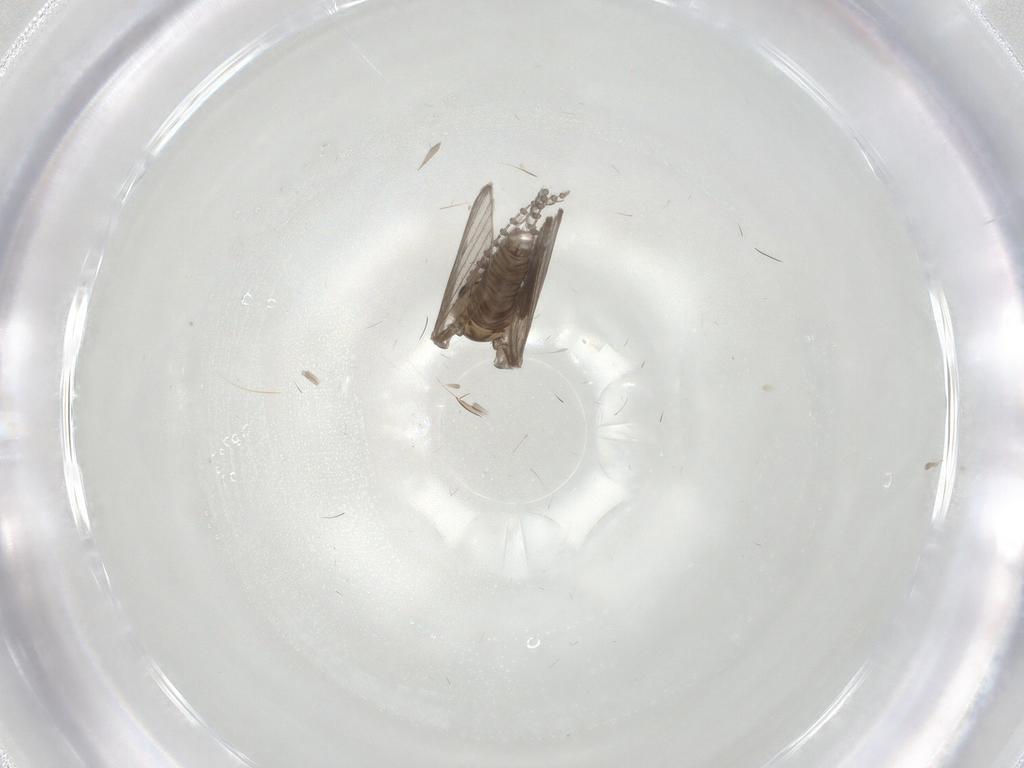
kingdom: Animalia
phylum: Arthropoda
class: Insecta
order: Diptera
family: Psychodidae
